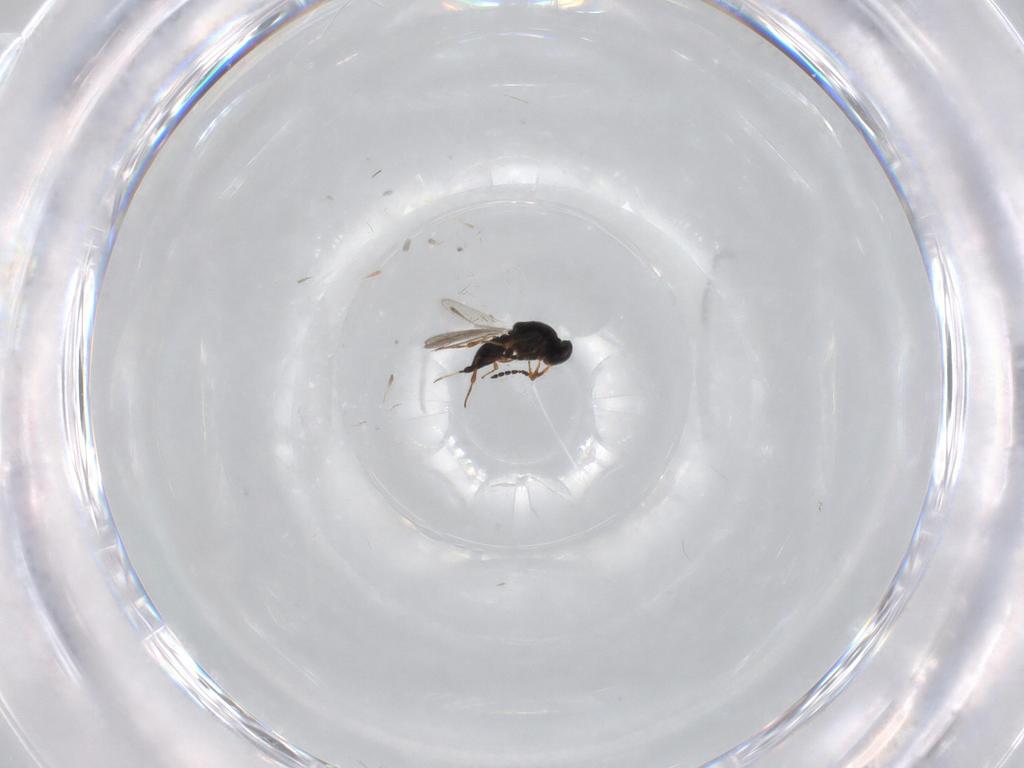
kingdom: Animalia
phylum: Arthropoda
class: Insecta
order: Hymenoptera
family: Platygastridae
